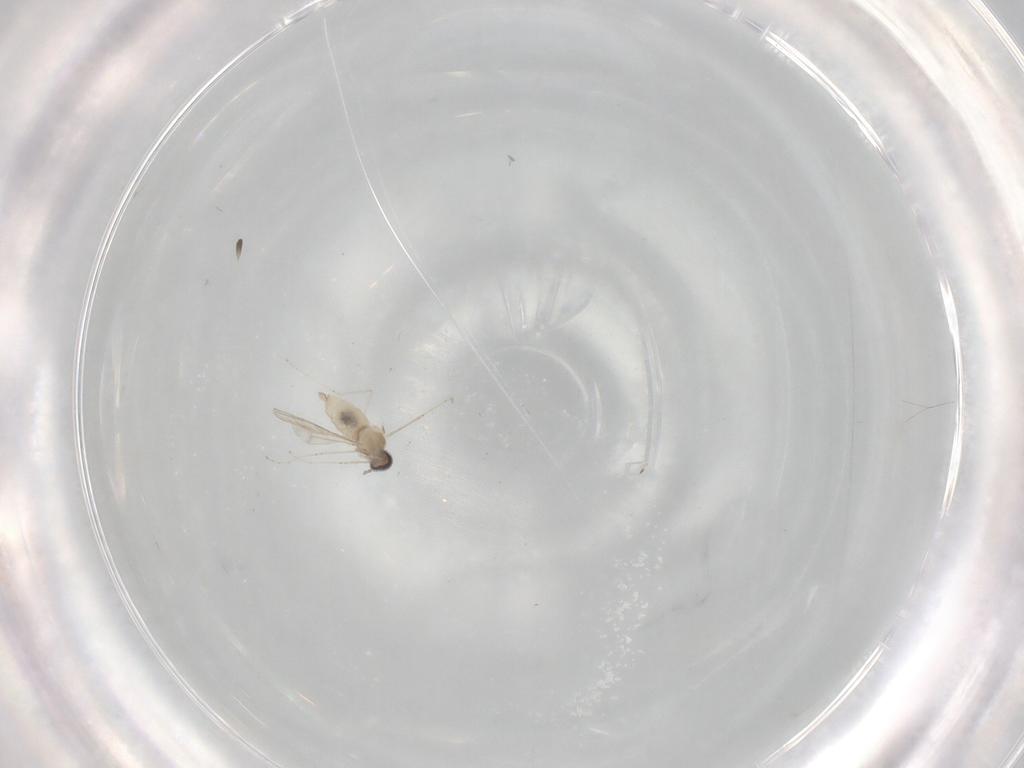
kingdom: Animalia
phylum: Arthropoda
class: Insecta
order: Diptera
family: Cecidomyiidae
